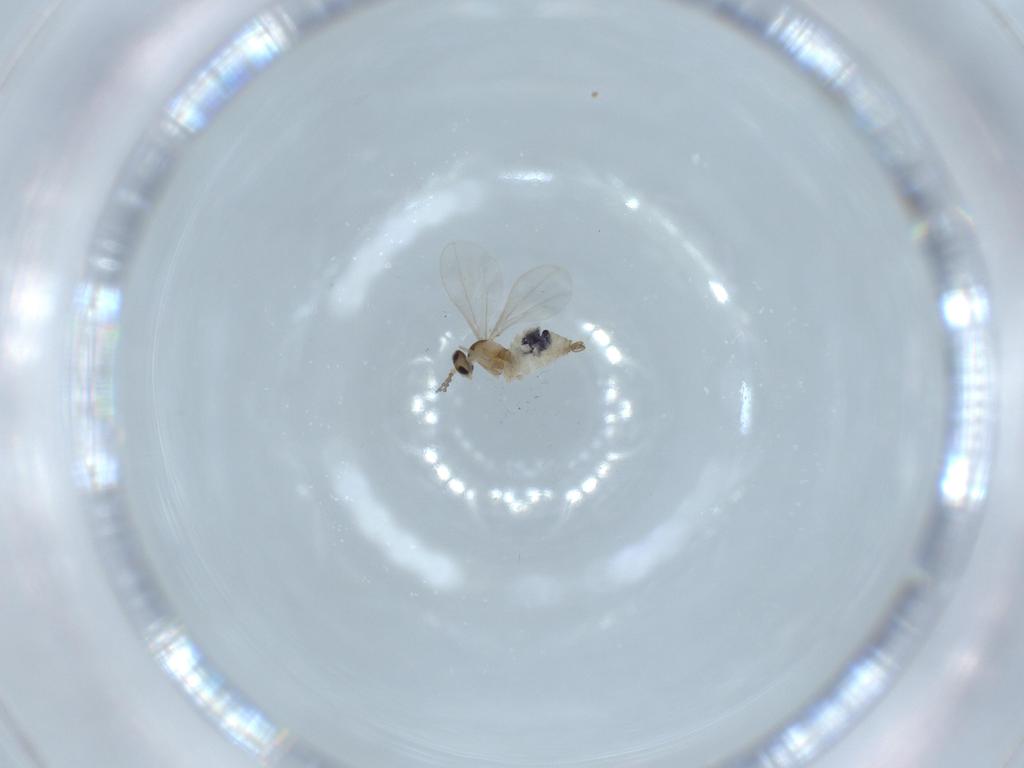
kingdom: Animalia
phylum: Arthropoda
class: Insecta
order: Diptera
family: Cecidomyiidae
